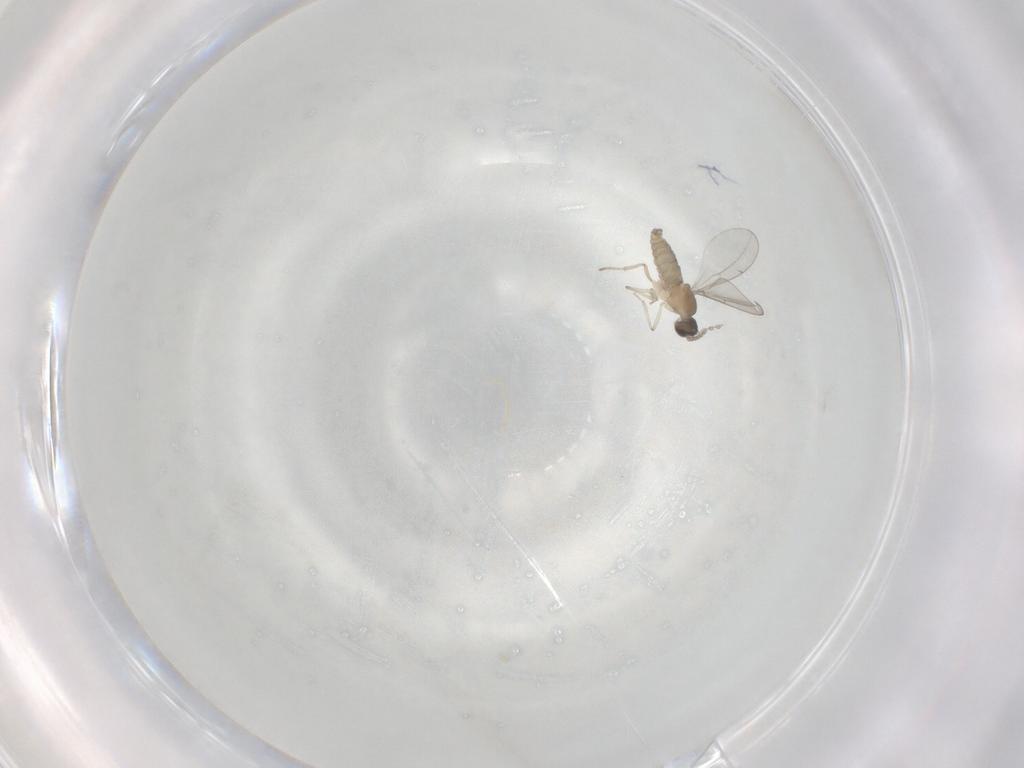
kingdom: Animalia
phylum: Arthropoda
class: Insecta
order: Diptera
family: Cecidomyiidae
